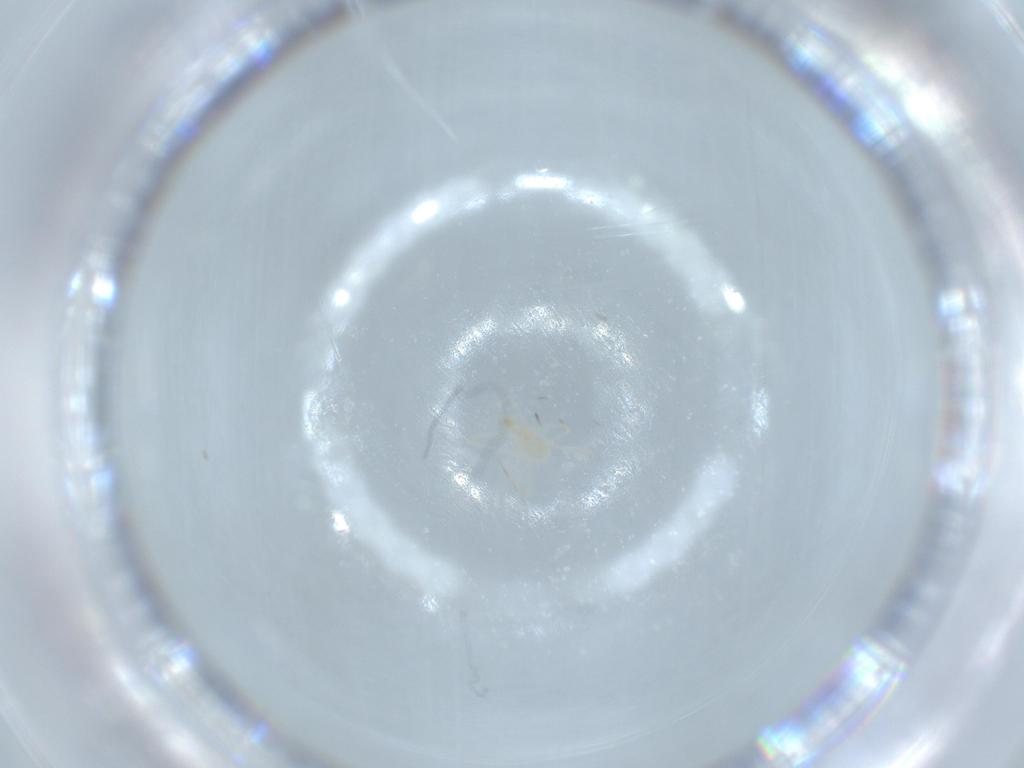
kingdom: Animalia
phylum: Arthropoda
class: Arachnida
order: Trombidiformes
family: Erythraeidae
